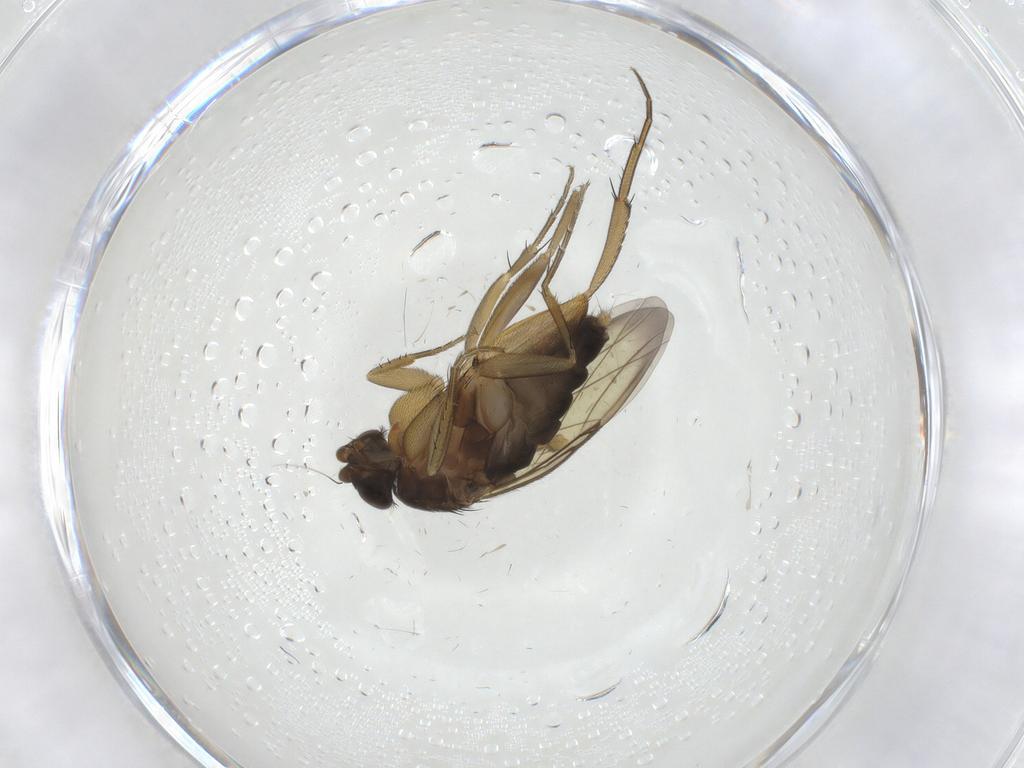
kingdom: Animalia
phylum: Arthropoda
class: Insecta
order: Diptera
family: Phoridae
